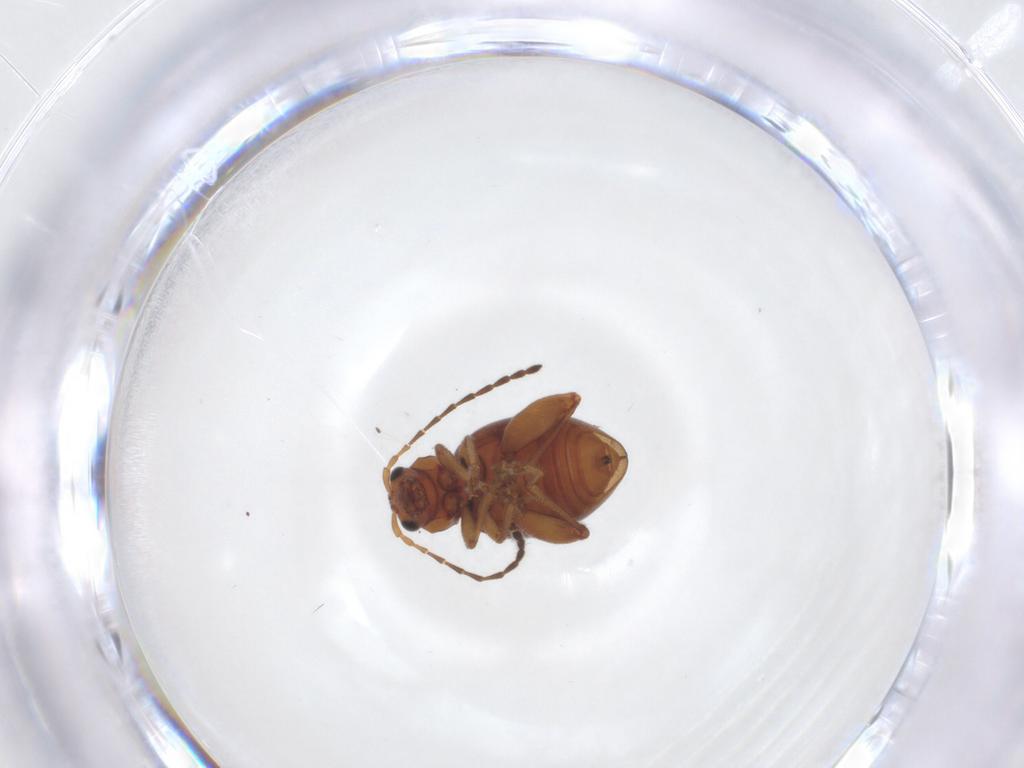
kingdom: Animalia
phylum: Arthropoda
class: Insecta
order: Coleoptera
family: Chrysomelidae
